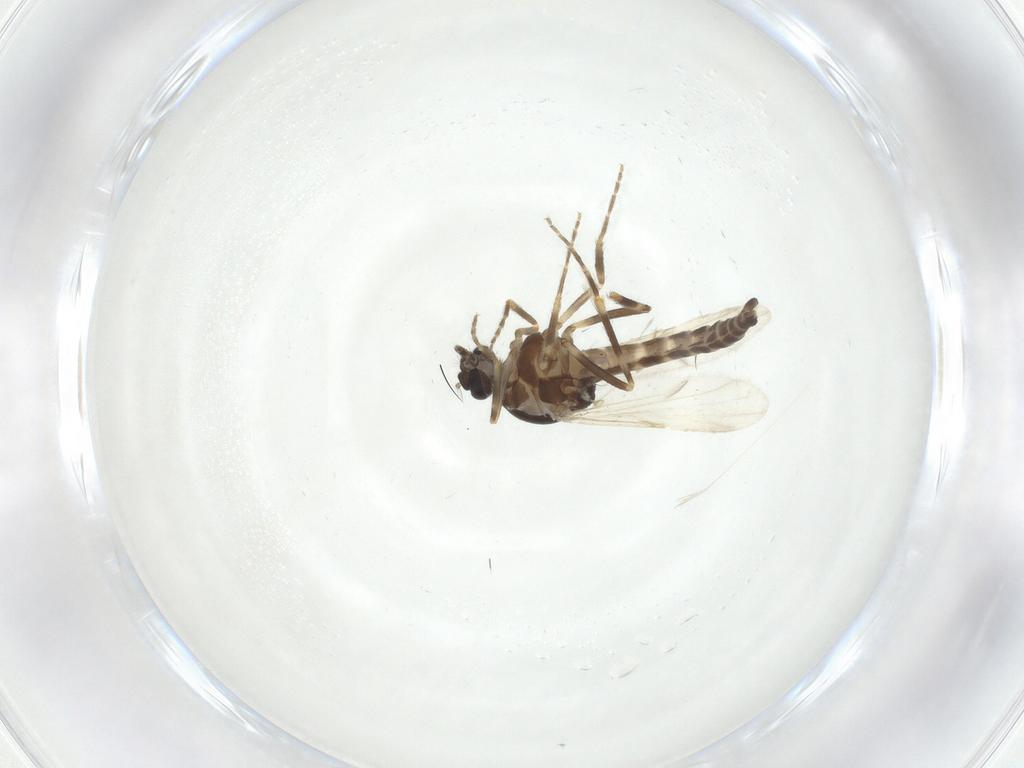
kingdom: Animalia
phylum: Arthropoda
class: Insecta
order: Diptera
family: Ceratopogonidae
